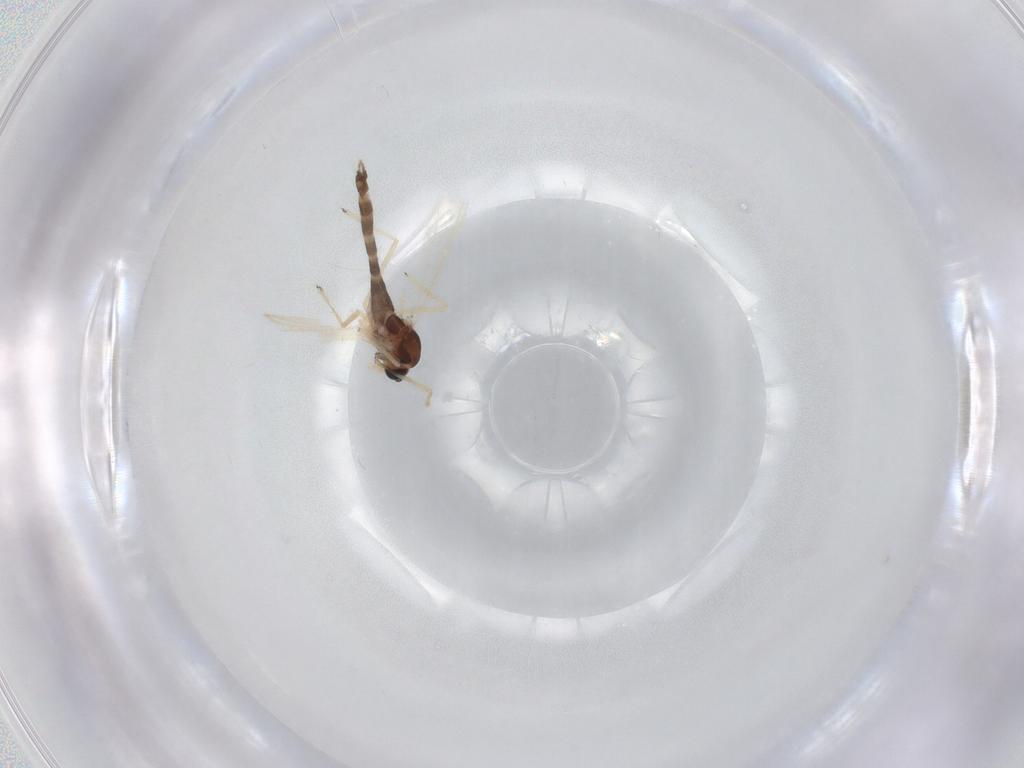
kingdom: Animalia
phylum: Arthropoda
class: Insecta
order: Diptera
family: Chironomidae
